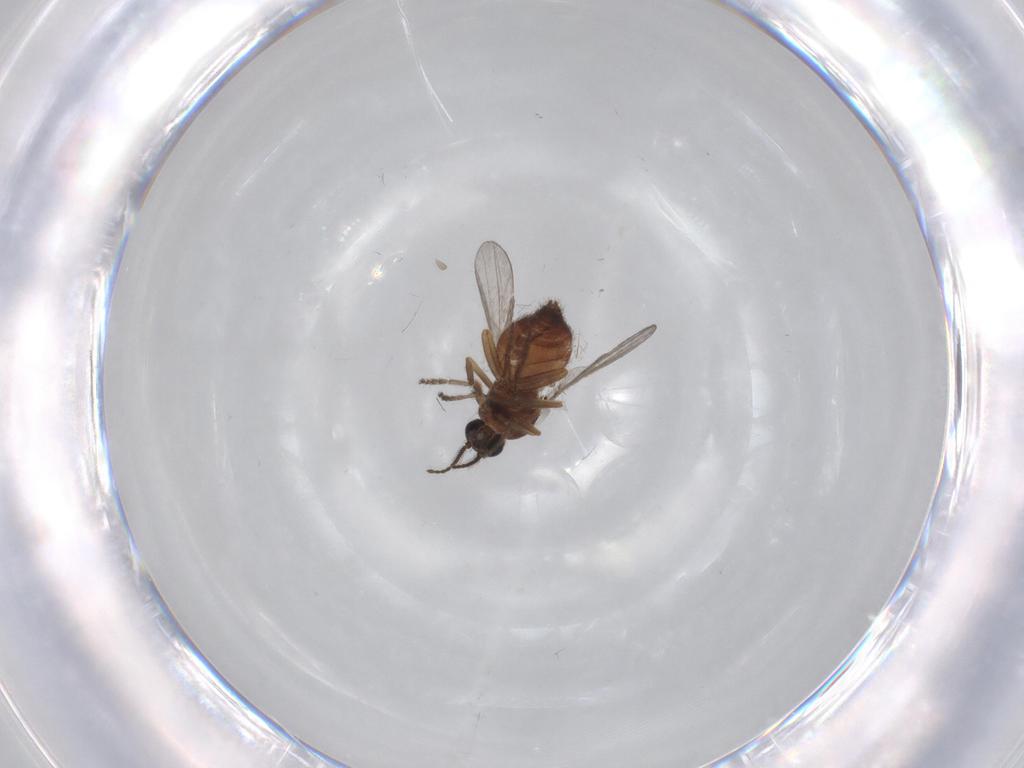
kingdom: Animalia
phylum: Arthropoda
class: Insecta
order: Diptera
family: Ceratopogonidae
